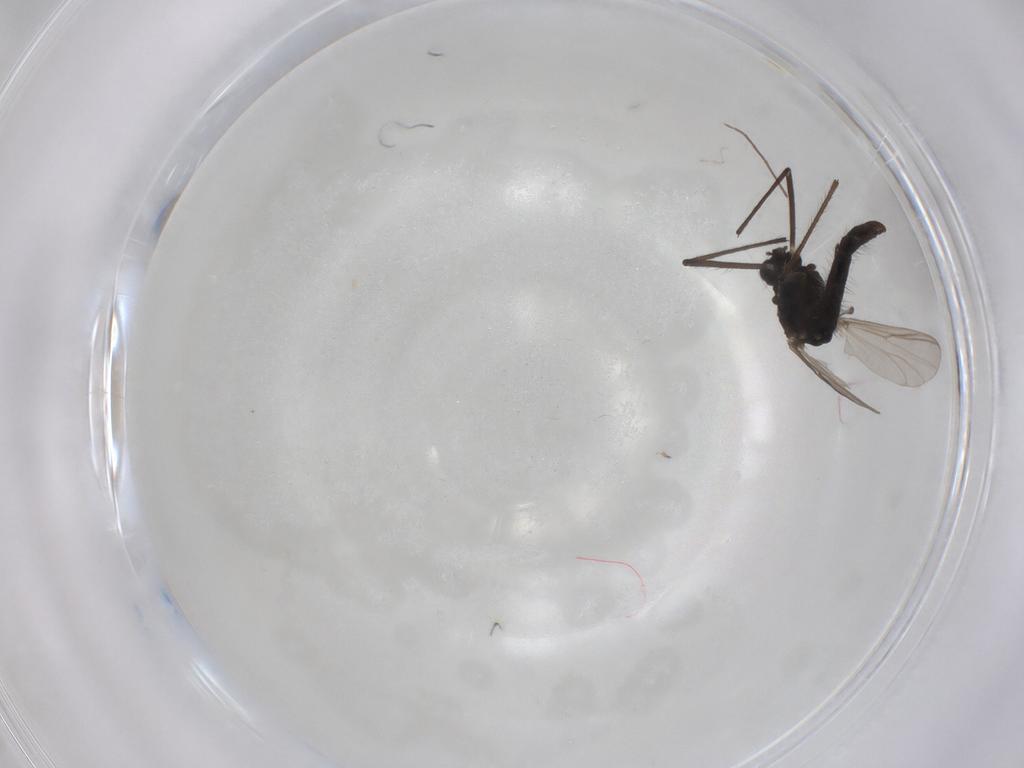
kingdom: Animalia
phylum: Arthropoda
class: Insecta
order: Diptera
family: Chironomidae
